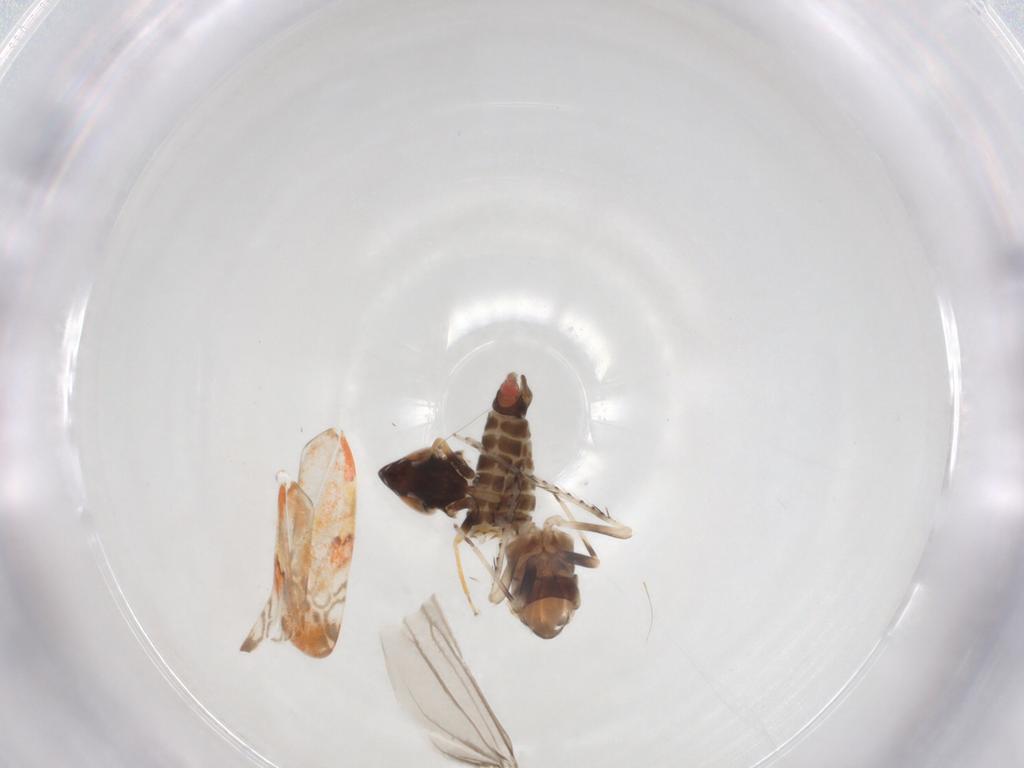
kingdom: Animalia
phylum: Arthropoda
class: Insecta
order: Hemiptera
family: Cicadellidae
